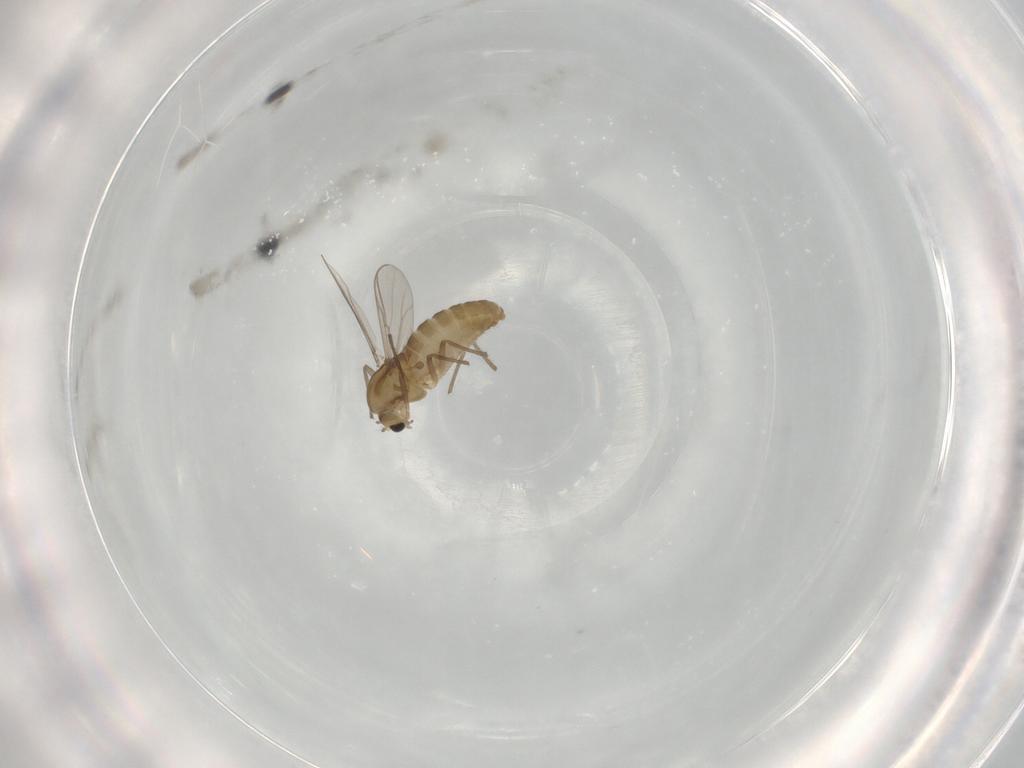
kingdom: Animalia
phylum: Arthropoda
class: Insecta
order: Diptera
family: Chironomidae
